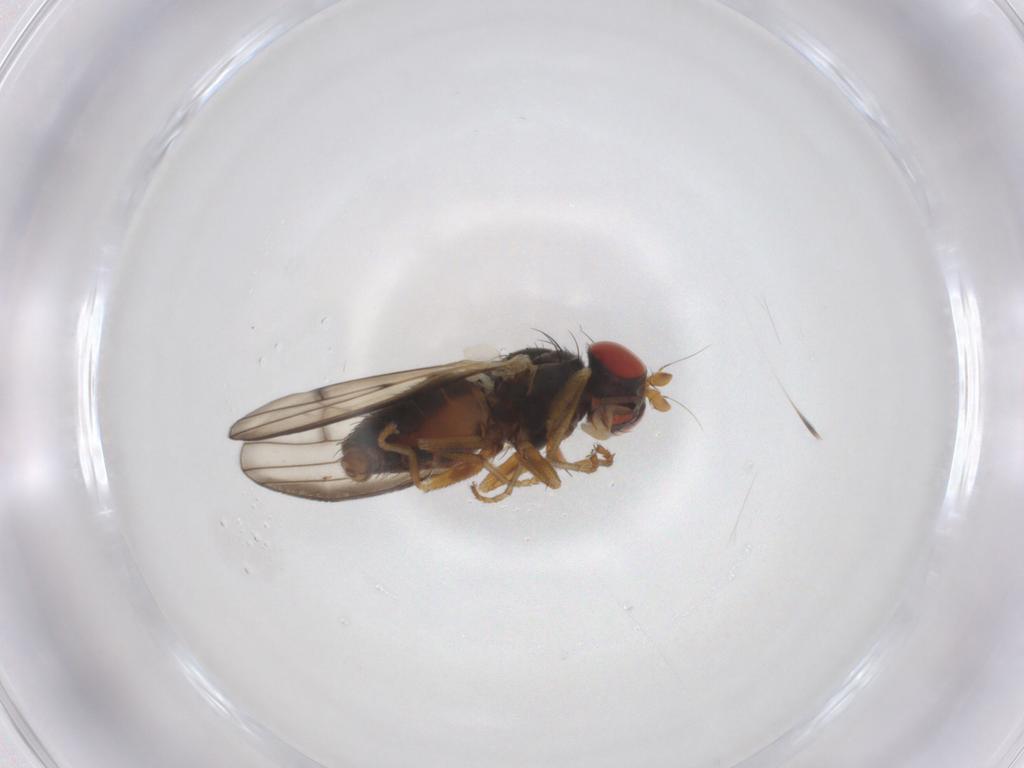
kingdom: Animalia
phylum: Arthropoda
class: Insecta
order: Diptera
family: Chamaemyiidae
